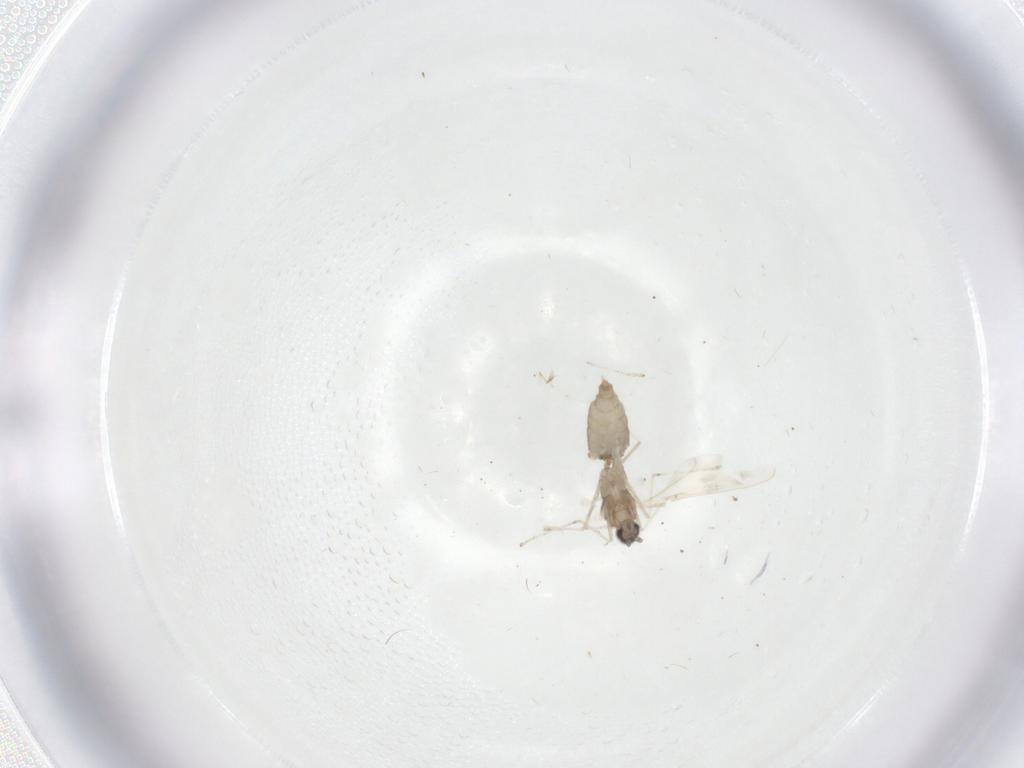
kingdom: Animalia
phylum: Arthropoda
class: Insecta
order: Diptera
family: Cecidomyiidae
